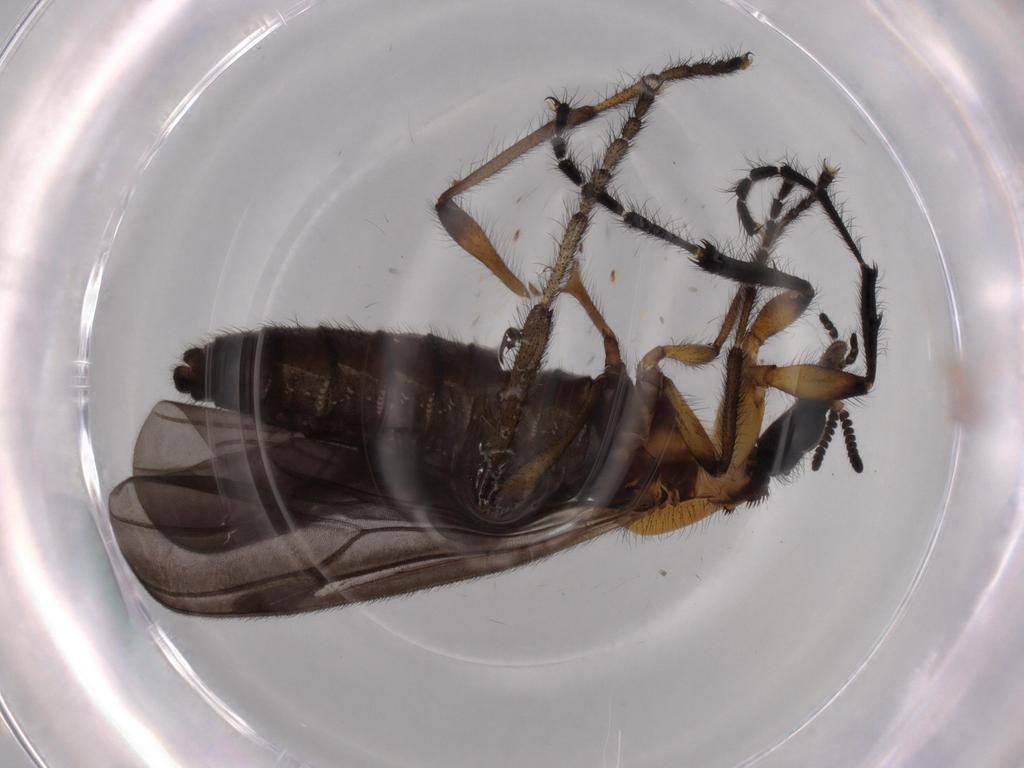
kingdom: Animalia
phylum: Arthropoda
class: Insecta
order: Diptera
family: Bibionidae
